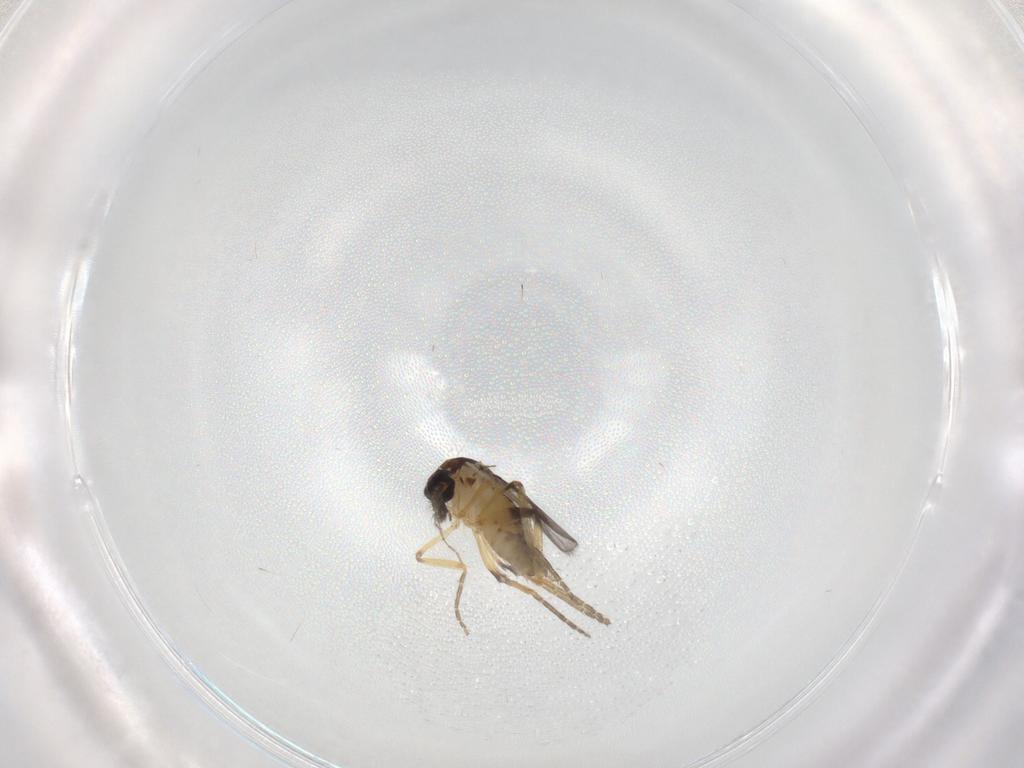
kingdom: Animalia
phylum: Arthropoda
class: Insecta
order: Diptera
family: Ceratopogonidae
